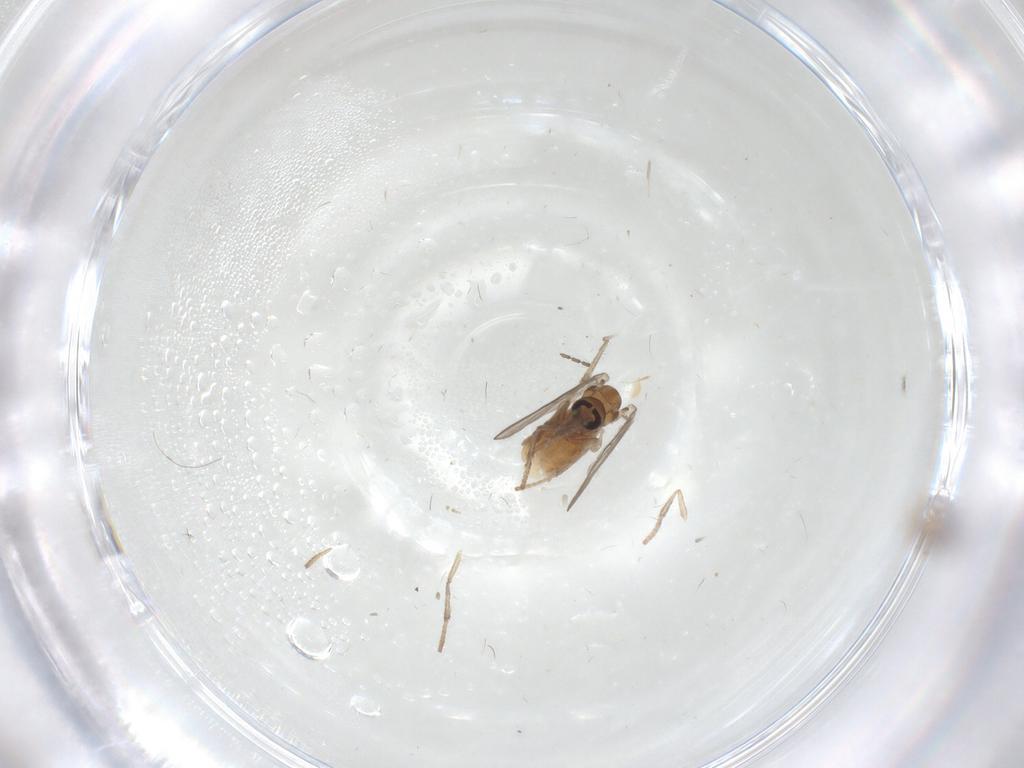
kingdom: Animalia
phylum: Arthropoda
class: Insecta
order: Diptera
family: Psychodidae
